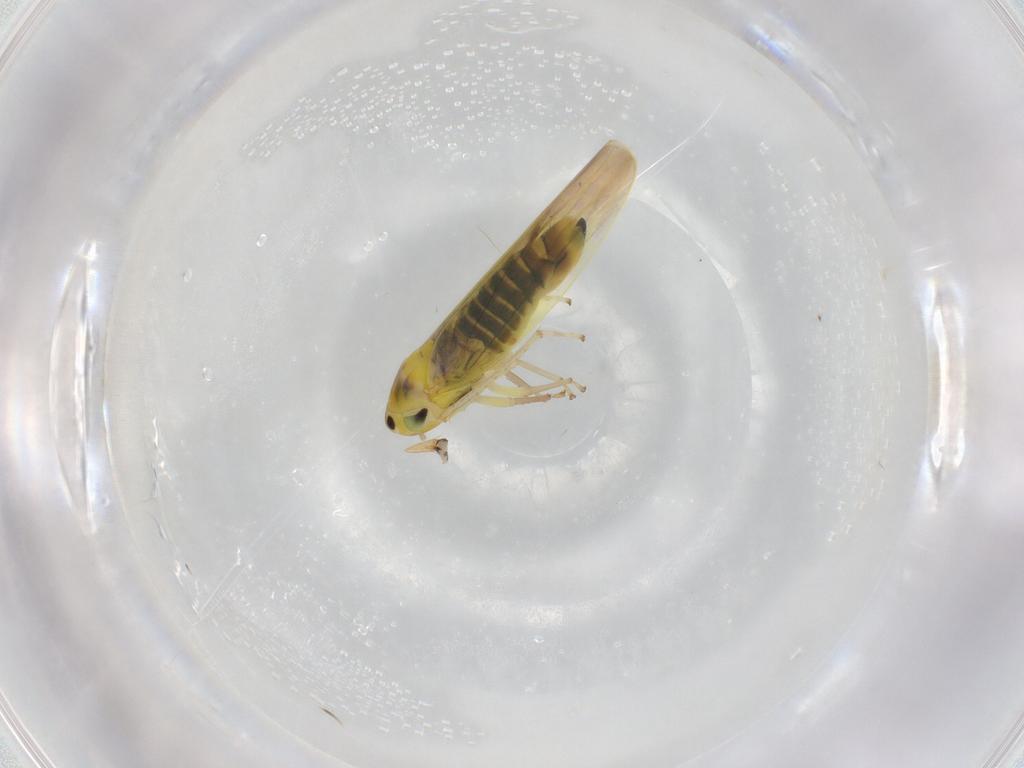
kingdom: Animalia
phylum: Arthropoda
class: Insecta
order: Hemiptera
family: Cicadellidae
